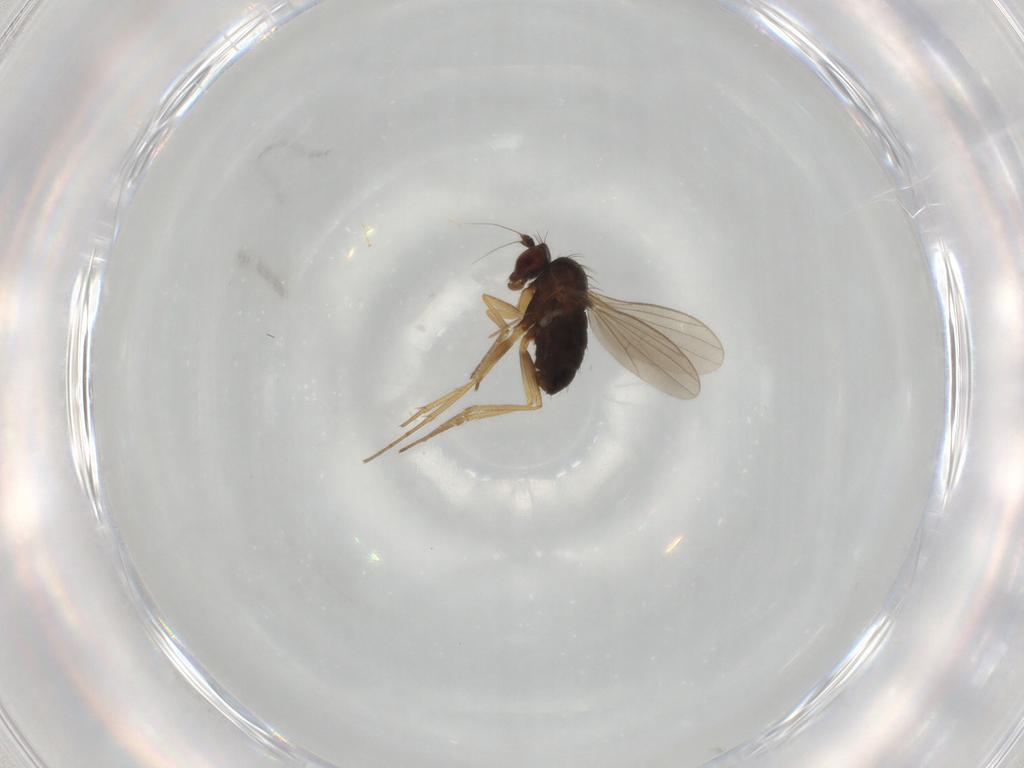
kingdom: Animalia
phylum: Arthropoda
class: Insecta
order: Diptera
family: Dolichopodidae
